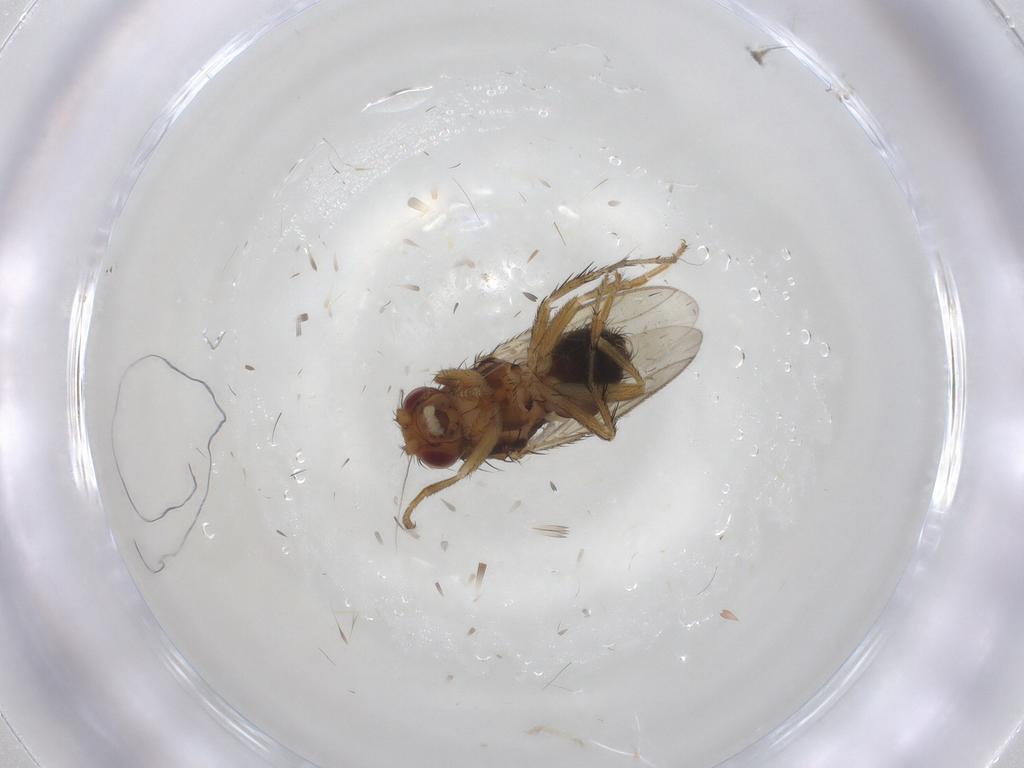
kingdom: Animalia
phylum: Arthropoda
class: Insecta
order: Diptera
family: Sphaeroceridae
